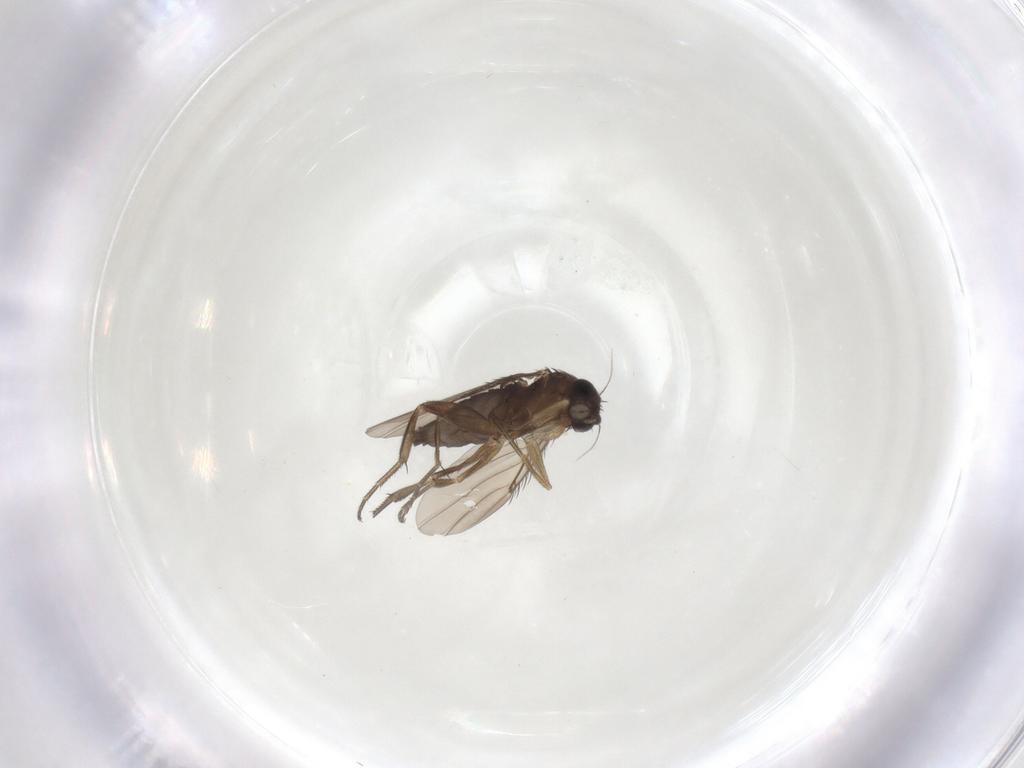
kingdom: Animalia
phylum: Arthropoda
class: Insecta
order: Diptera
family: Phoridae
